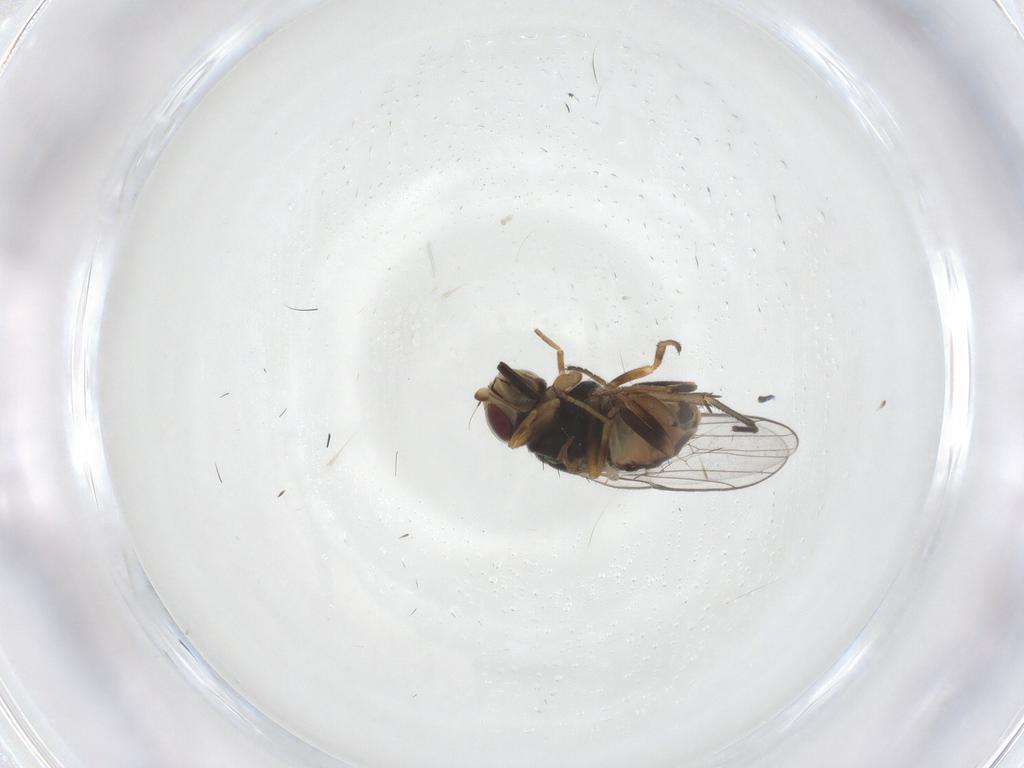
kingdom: Animalia
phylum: Arthropoda
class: Insecta
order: Diptera
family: Chloropidae
